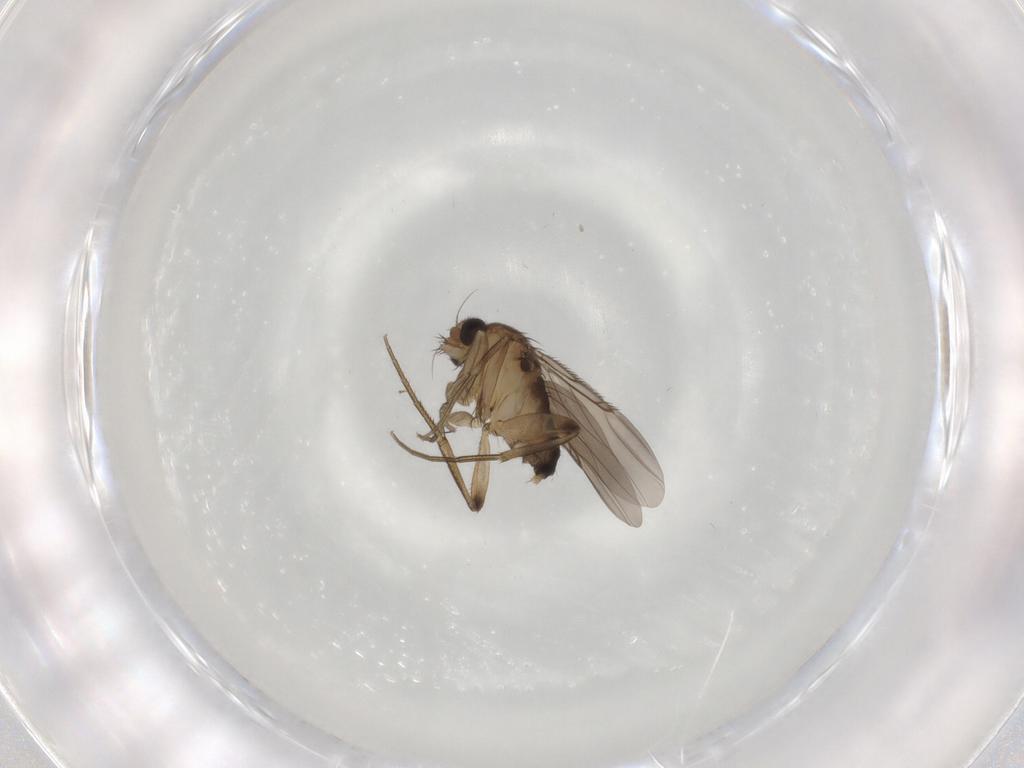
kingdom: Animalia
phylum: Arthropoda
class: Insecta
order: Diptera
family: Phoridae
